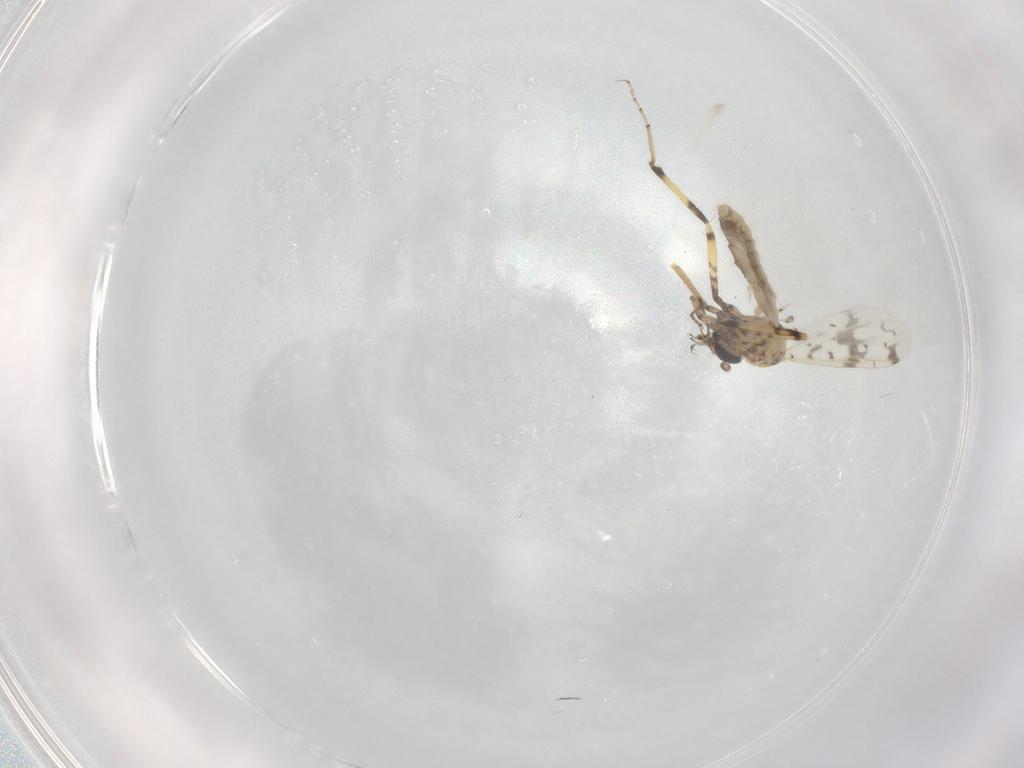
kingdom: Animalia
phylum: Arthropoda
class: Insecta
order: Diptera
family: Ceratopogonidae
